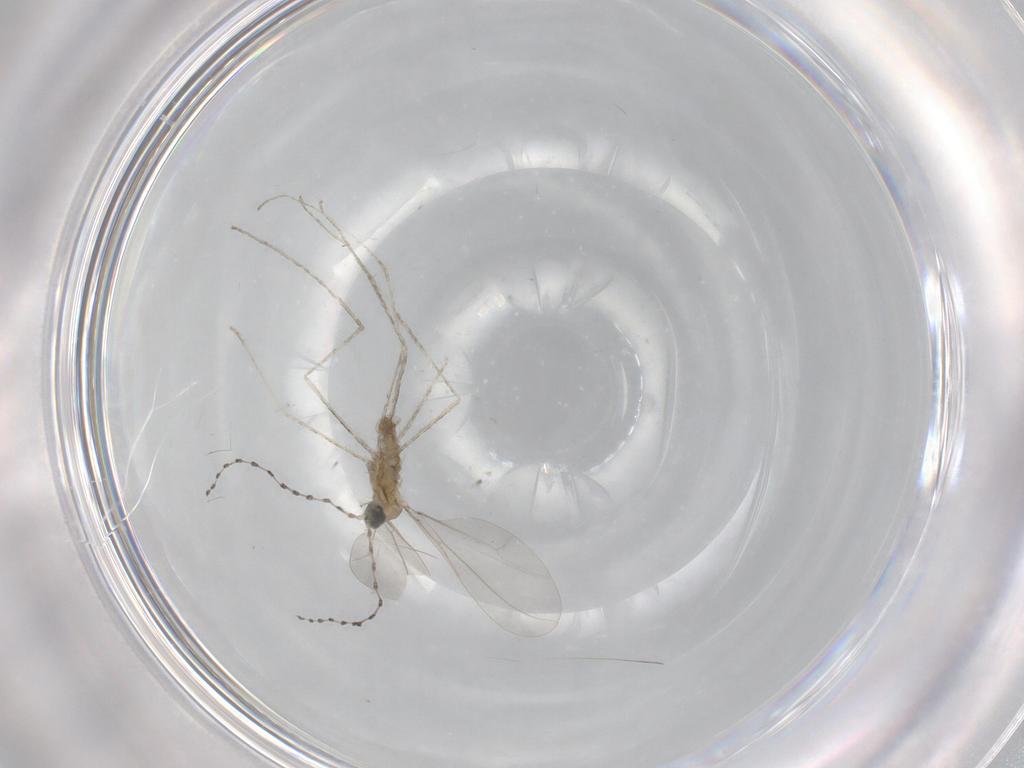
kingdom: Animalia
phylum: Arthropoda
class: Insecta
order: Diptera
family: Cecidomyiidae
